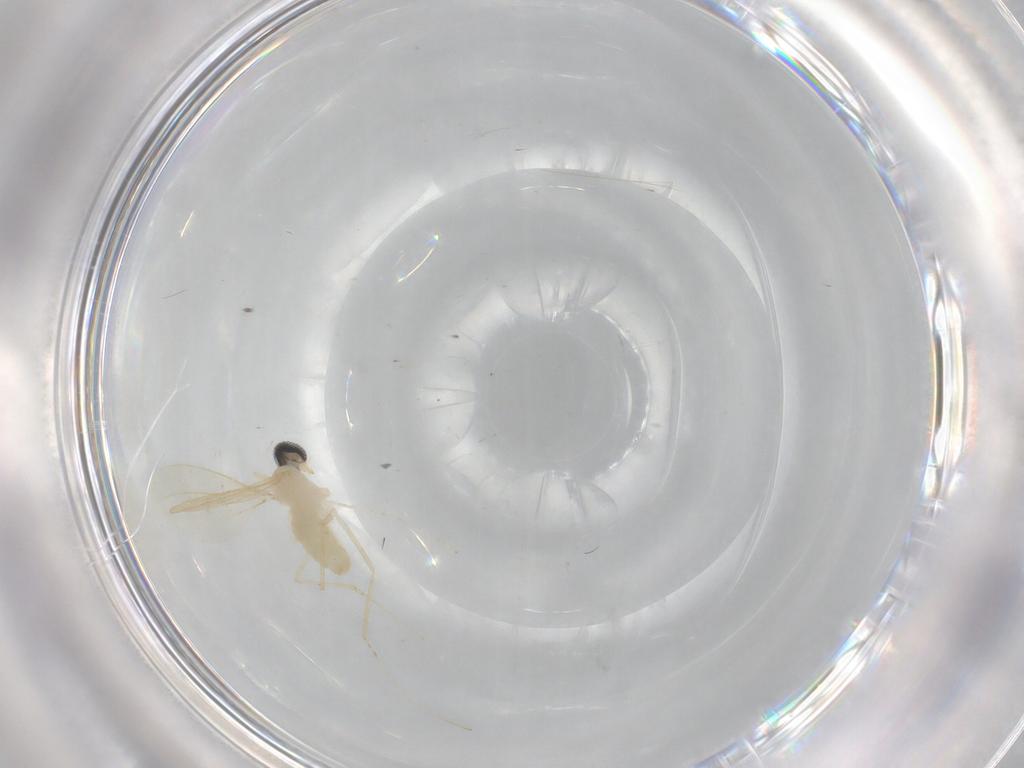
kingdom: Animalia
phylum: Arthropoda
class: Insecta
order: Diptera
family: Cecidomyiidae
